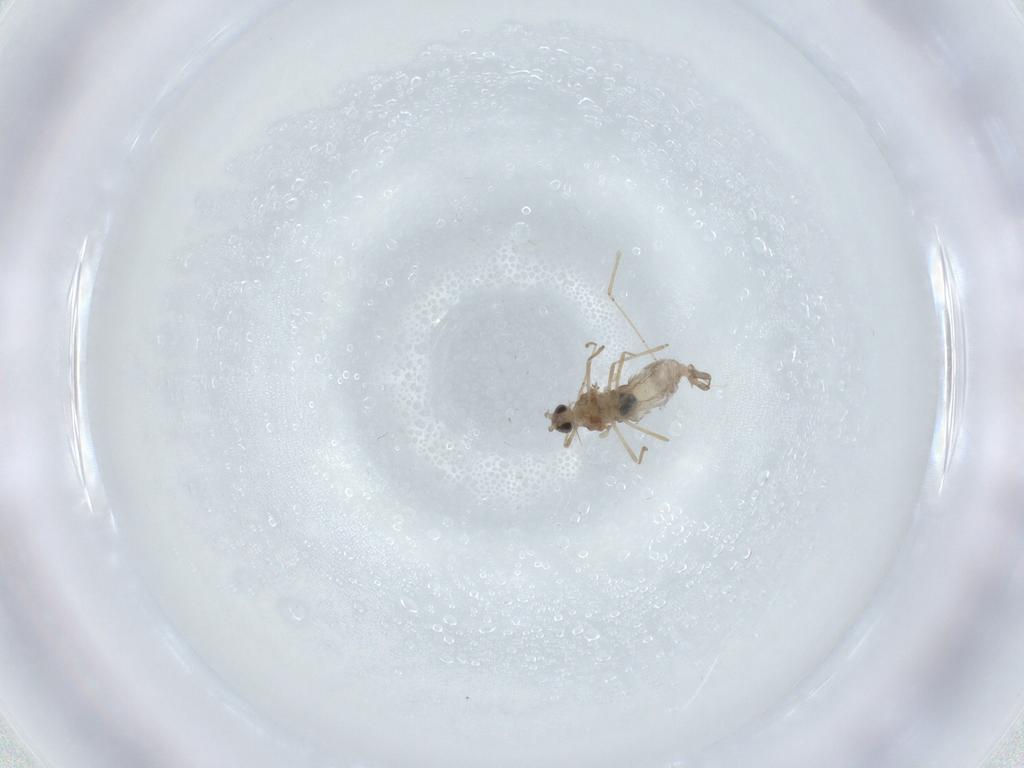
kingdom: Animalia
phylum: Arthropoda
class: Insecta
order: Diptera
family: Cecidomyiidae
